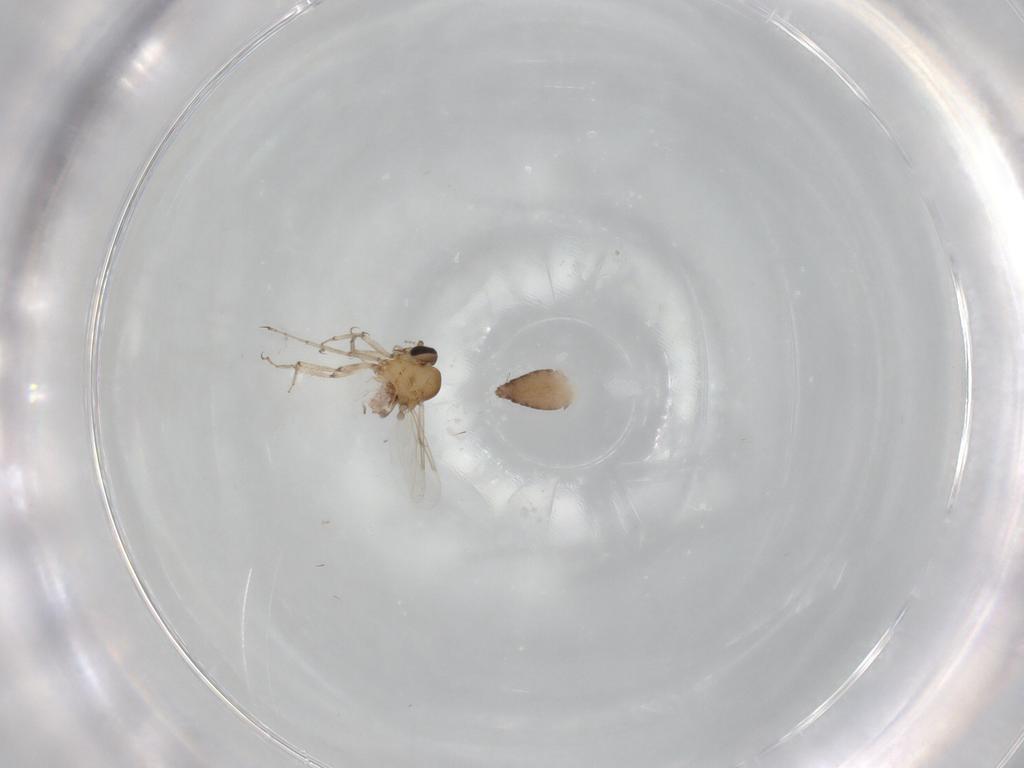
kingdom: Animalia
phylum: Arthropoda
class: Insecta
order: Diptera
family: Ceratopogonidae
